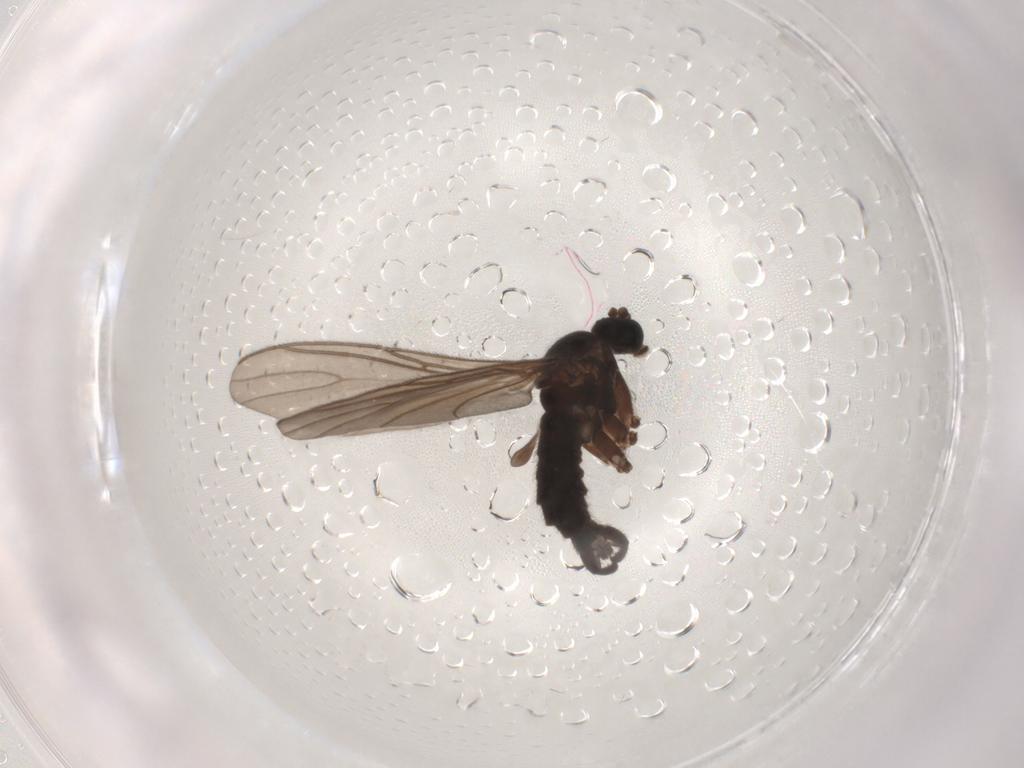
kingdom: Animalia
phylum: Arthropoda
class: Insecta
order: Diptera
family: Sciaridae
